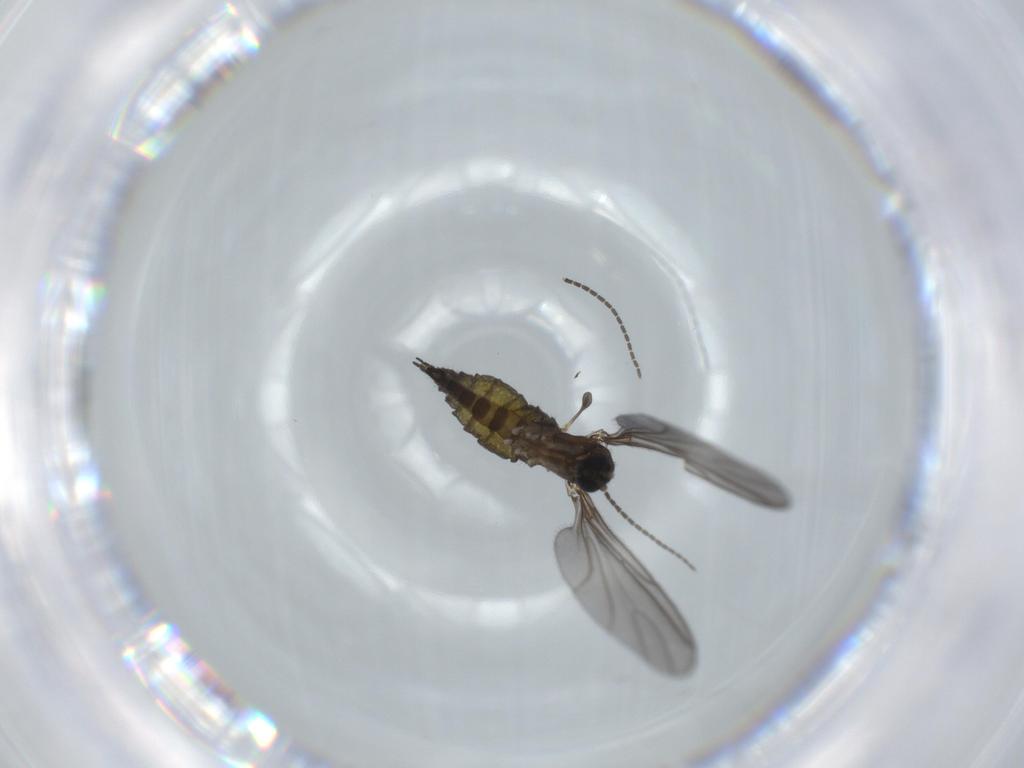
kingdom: Animalia
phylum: Arthropoda
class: Insecta
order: Diptera
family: Sciaridae
